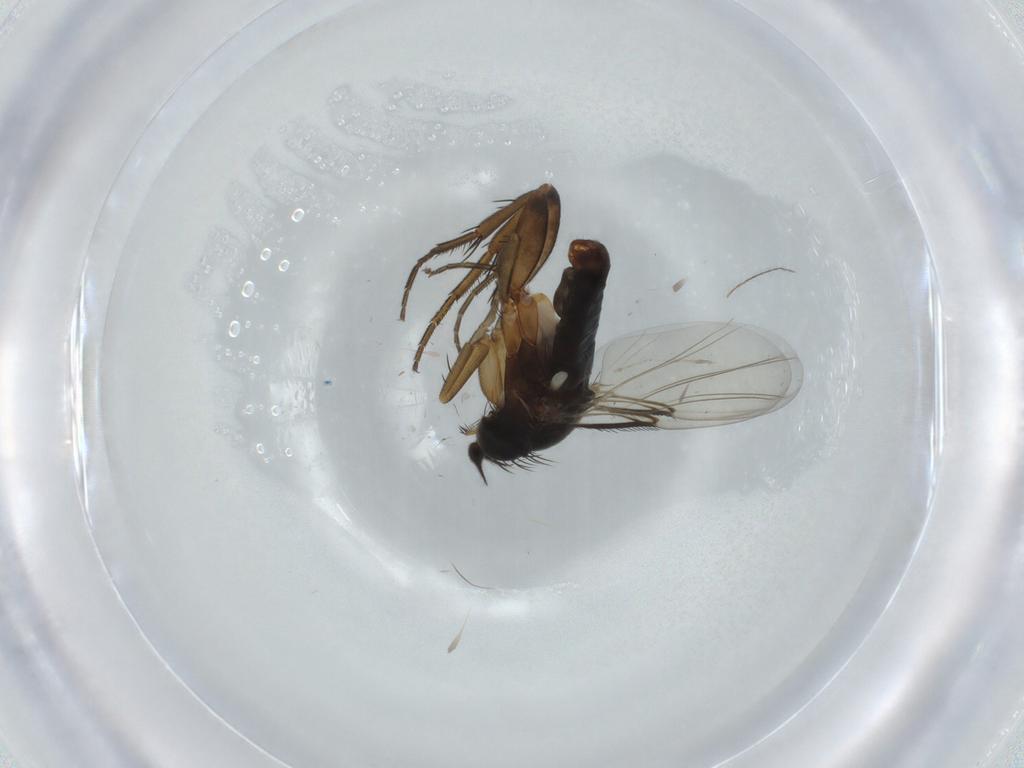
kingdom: Animalia
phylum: Arthropoda
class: Insecta
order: Diptera
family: Phoridae
